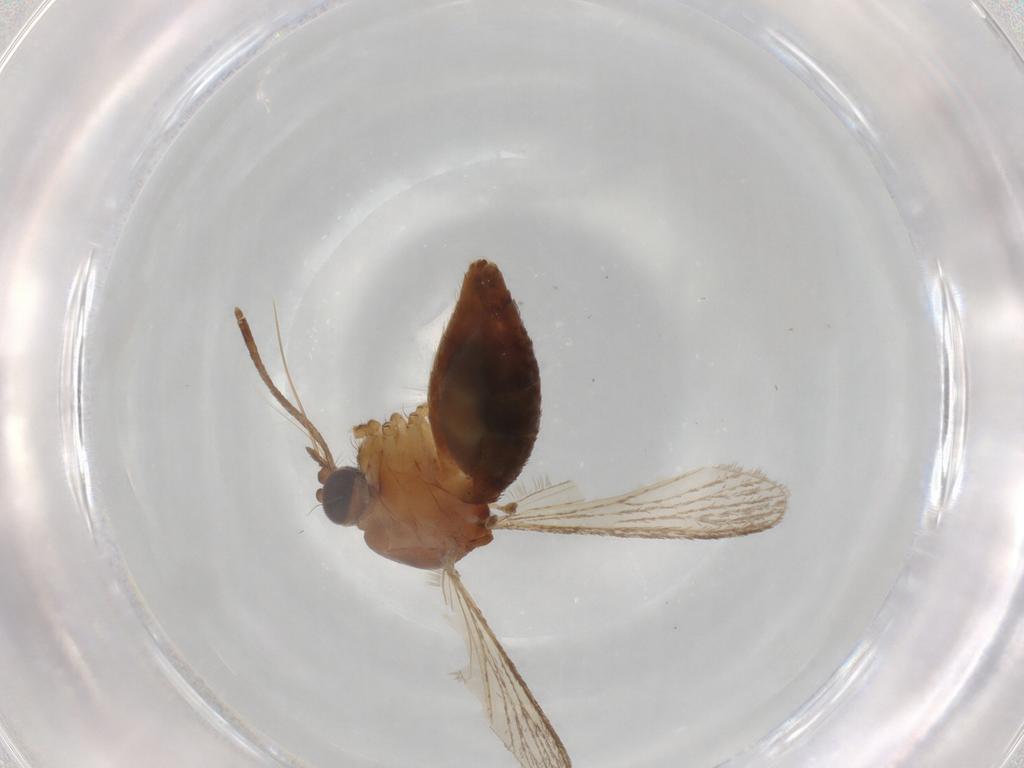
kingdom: Animalia
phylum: Arthropoda
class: Insecta
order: Diptera
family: Cecidomyiidae
